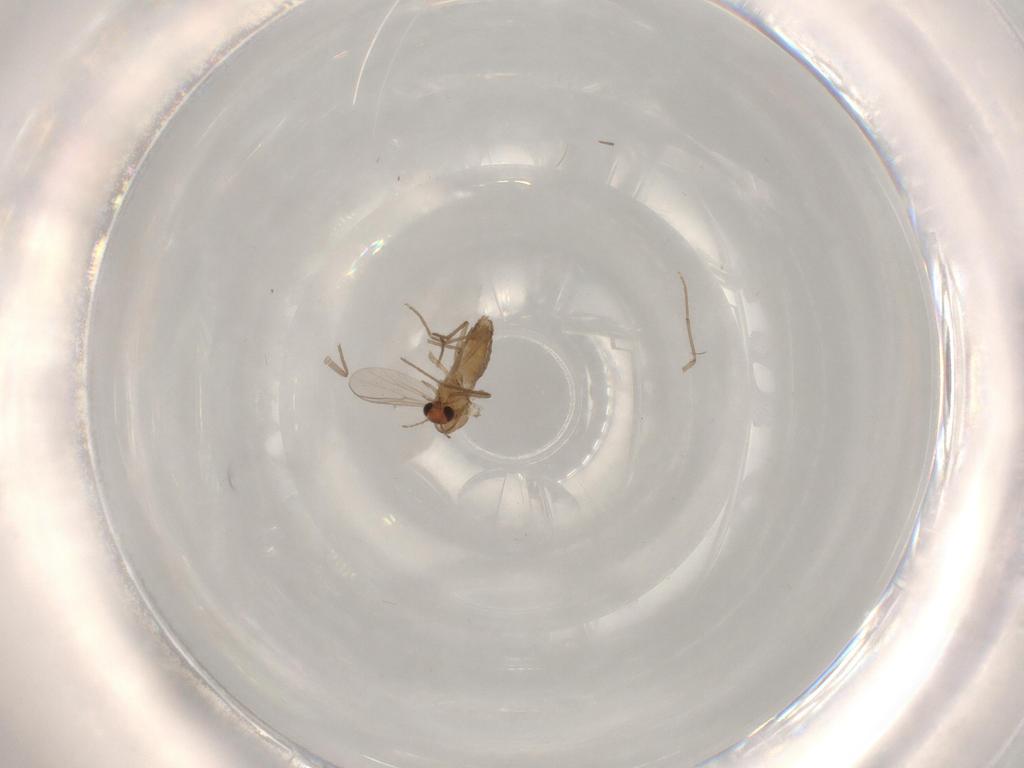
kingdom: Animalia
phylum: Arthropoda
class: Insecta
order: Diptera
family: Chironomidae
